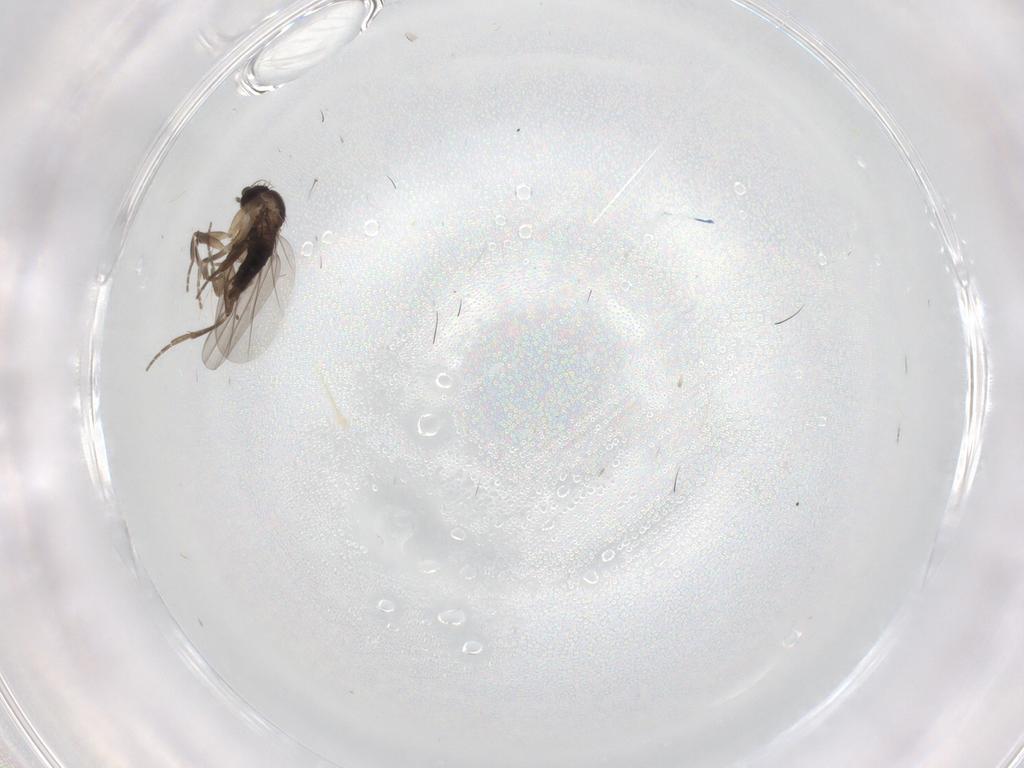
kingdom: Animalia
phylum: Arthropoda
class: Insecta
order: Diptera
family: Phoridae
